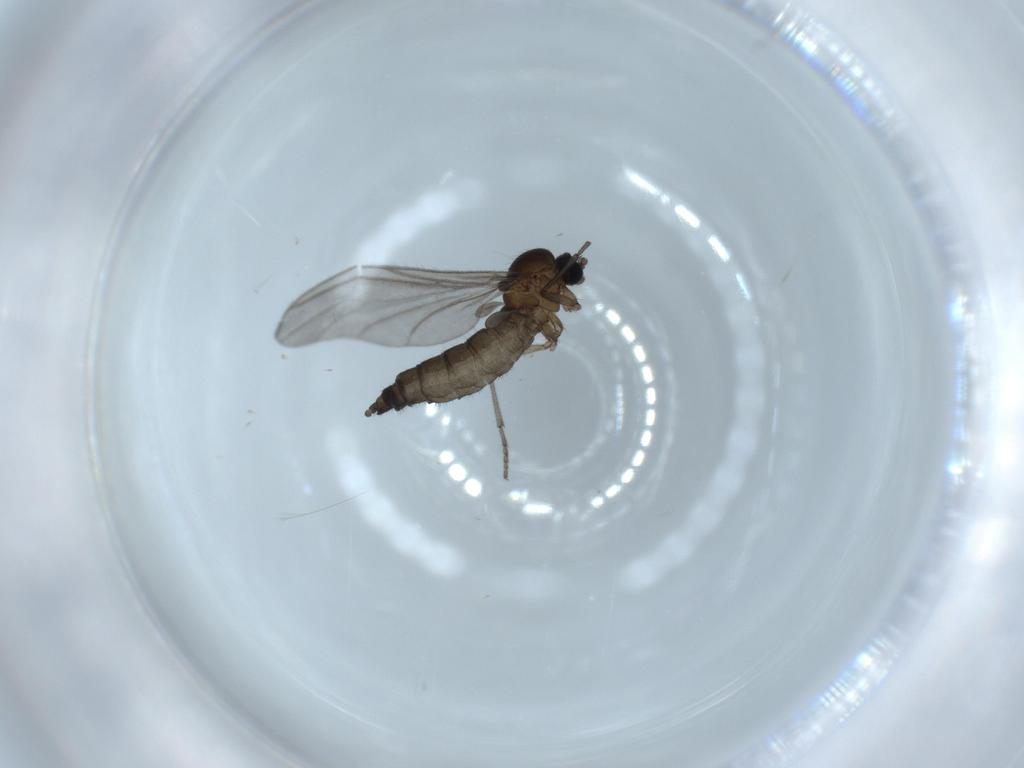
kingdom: Animalia
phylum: Arthropoda
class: Insecta
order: Diptera
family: Sciaridae
